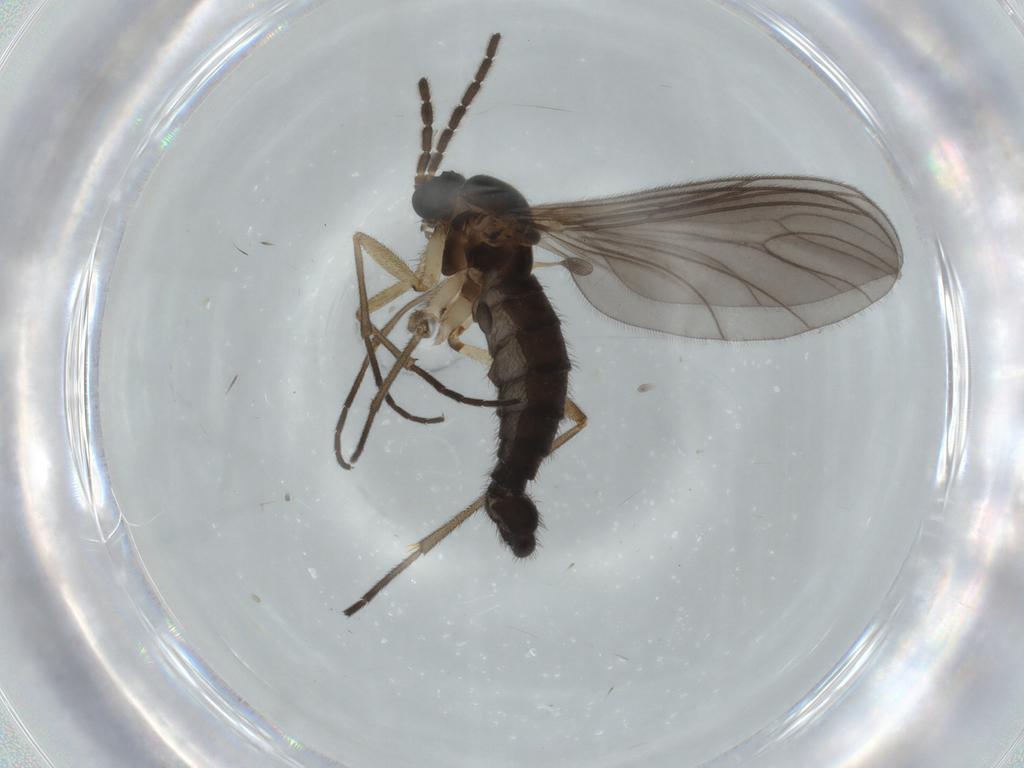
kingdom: Animalia
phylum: Arthropoda
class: Insecta
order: Diptera
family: Sciaridae
